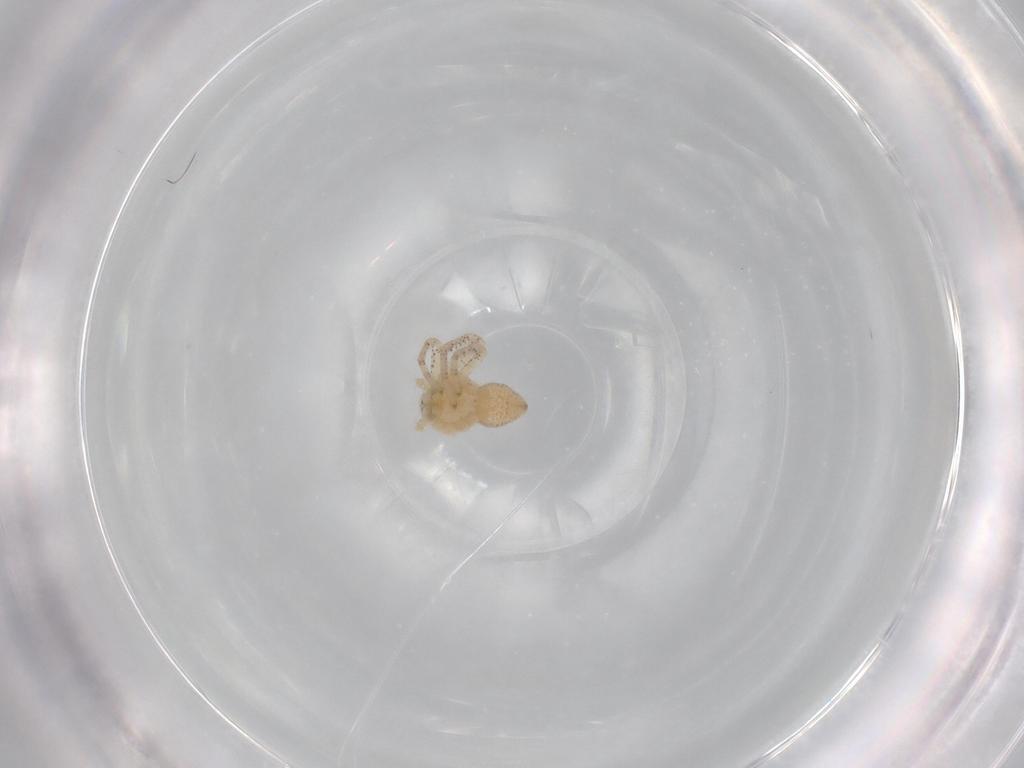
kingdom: Animalia
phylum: Arthropoda
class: Arachnida
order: Araneae
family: Philodromidae
